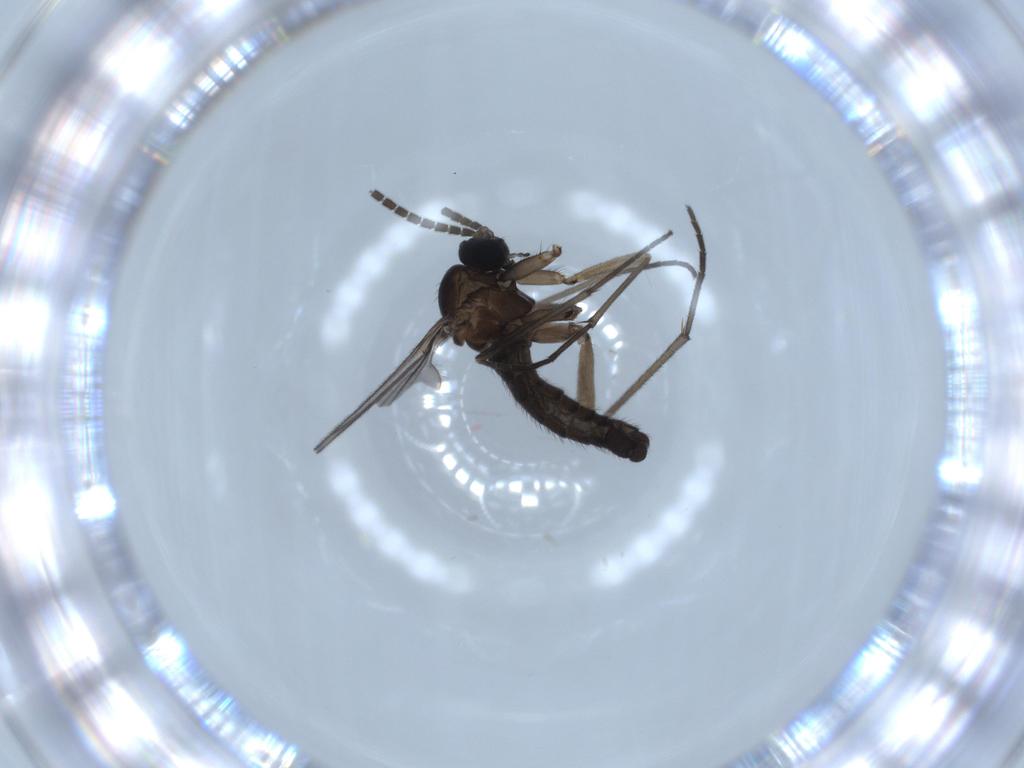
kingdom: Animalia
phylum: Arthropoda
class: Insecta
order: Diptera
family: Sciaridae
